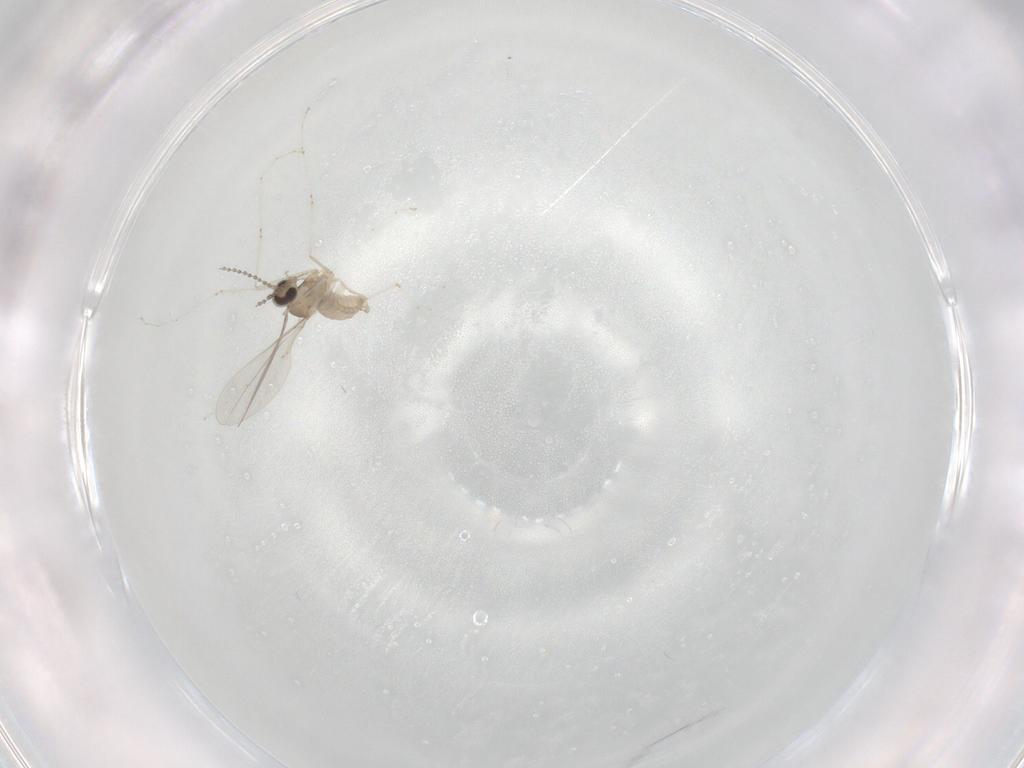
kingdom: Animalia
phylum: Arthropoda
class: Insecta
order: Diptera
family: Cecidomyiidae
